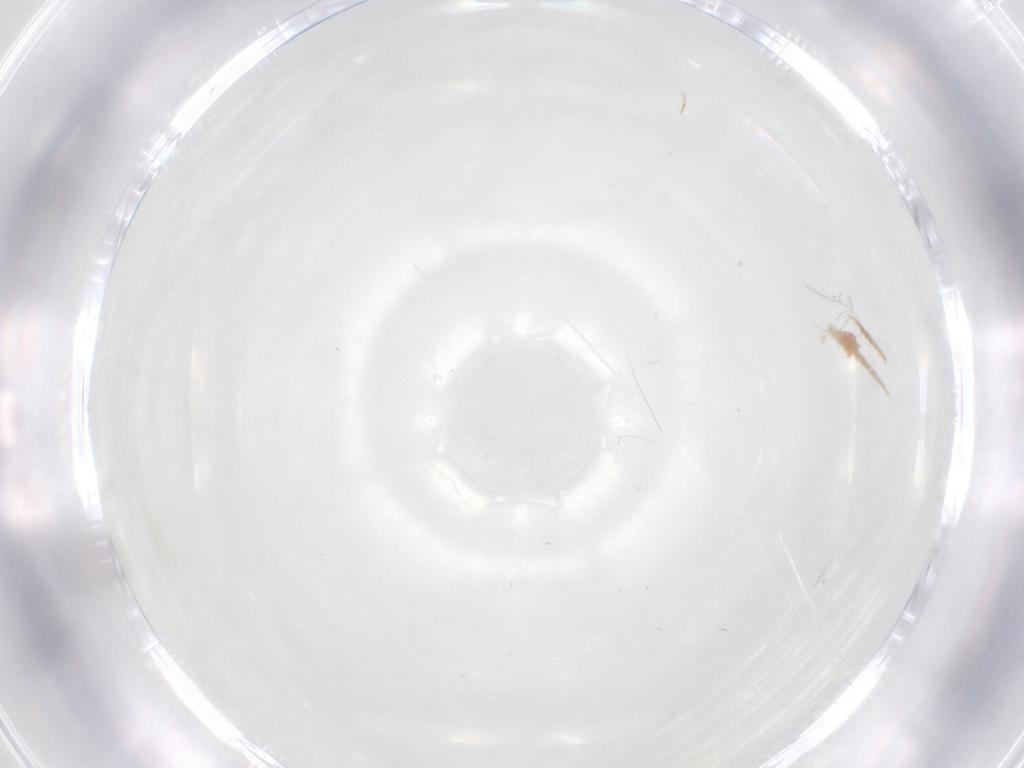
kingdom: Animalia
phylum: Arthropoda
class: Insecta
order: Hymenoptera
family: Mymaridae
